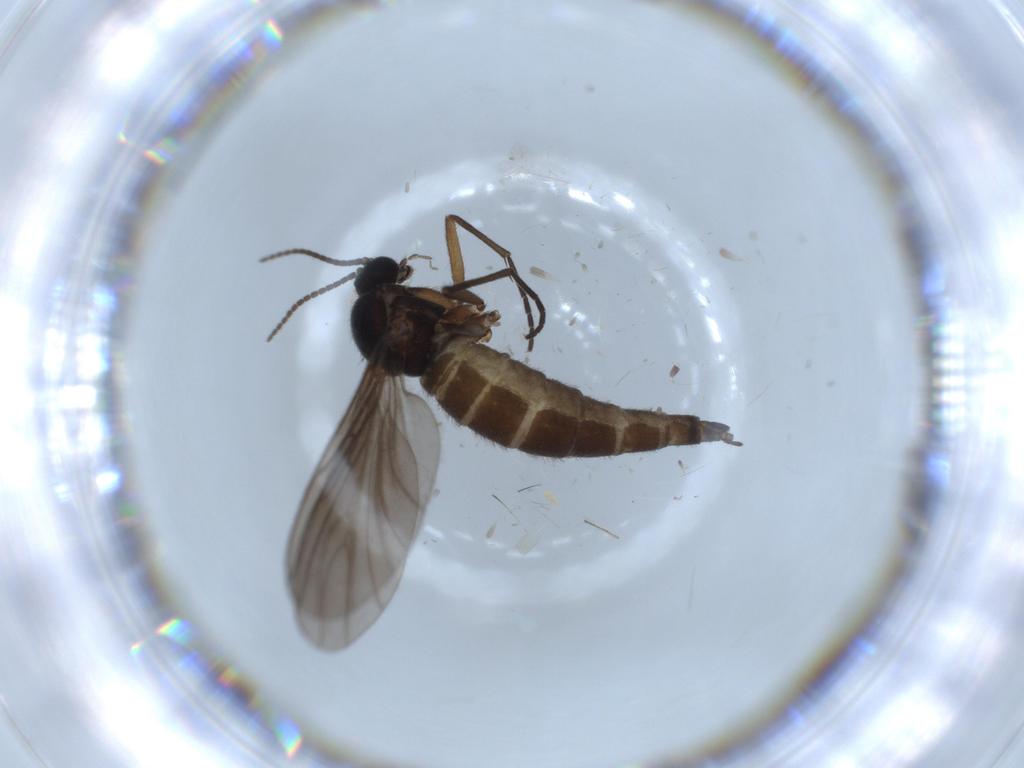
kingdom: Animalia
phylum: Arthropoda
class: Insecta
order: Diptera
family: Sciaridae
